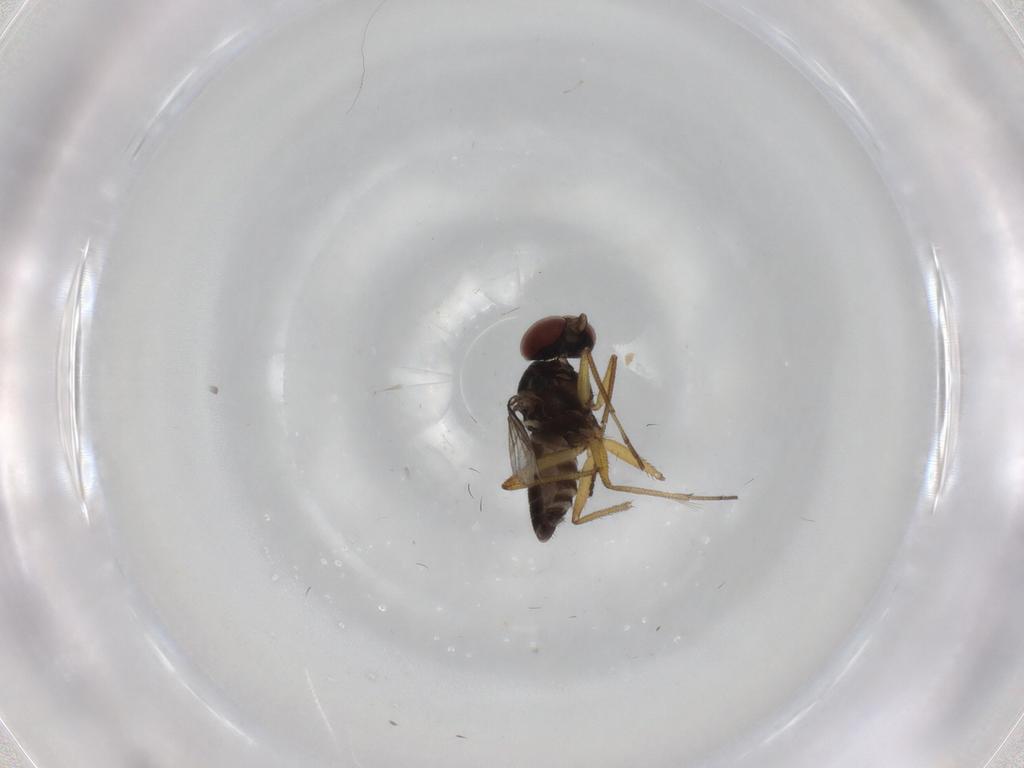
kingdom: Animalia
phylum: Arthropoda
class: Insecta
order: Diptera
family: Dolichopodidae
